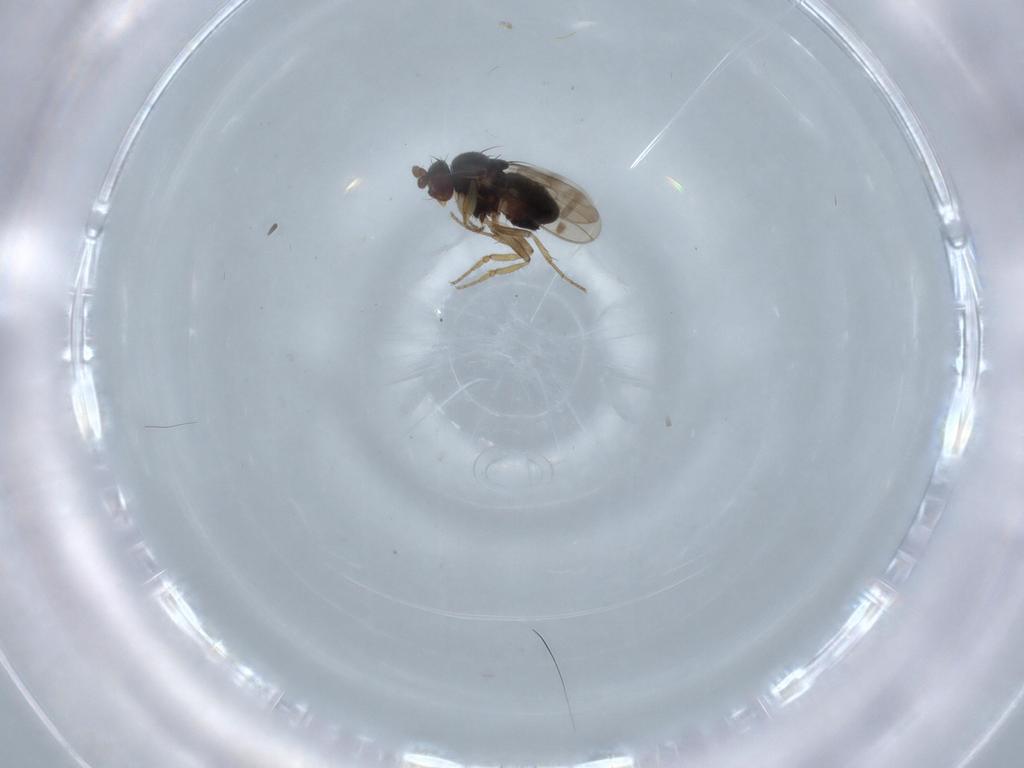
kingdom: Animalia
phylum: Arthropoda
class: Insecta
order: Diptera
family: Sphaeroceridae
